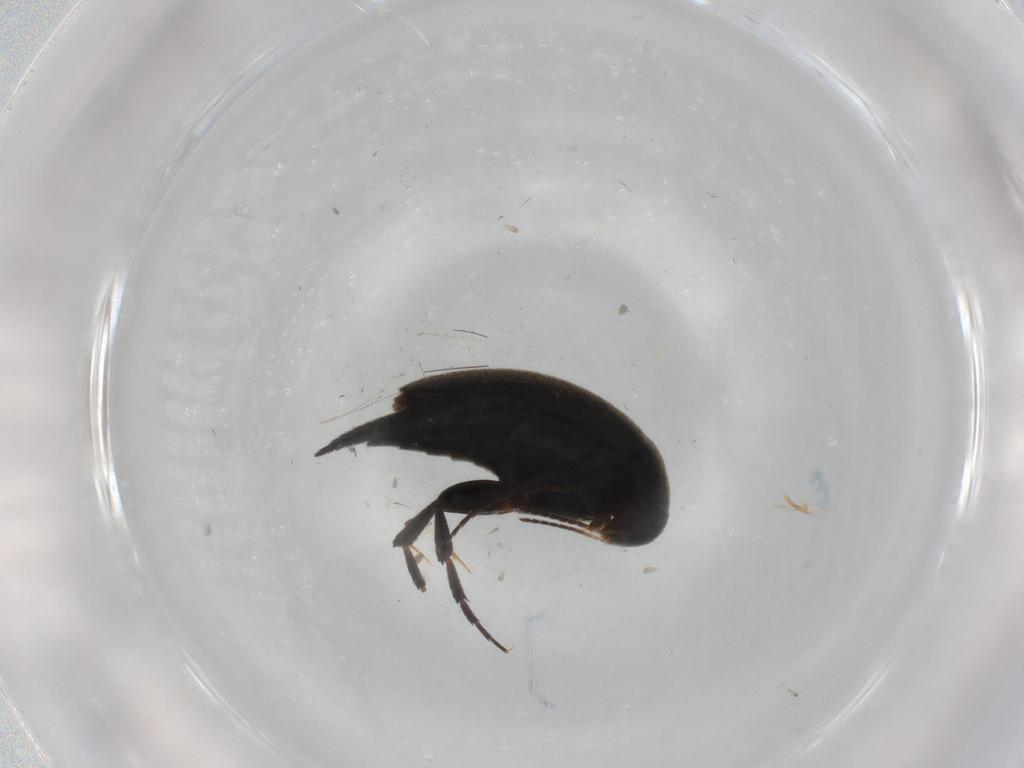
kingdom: Animalia
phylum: Arthropoda
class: Insecta
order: Coleoptera
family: Mordellidae
